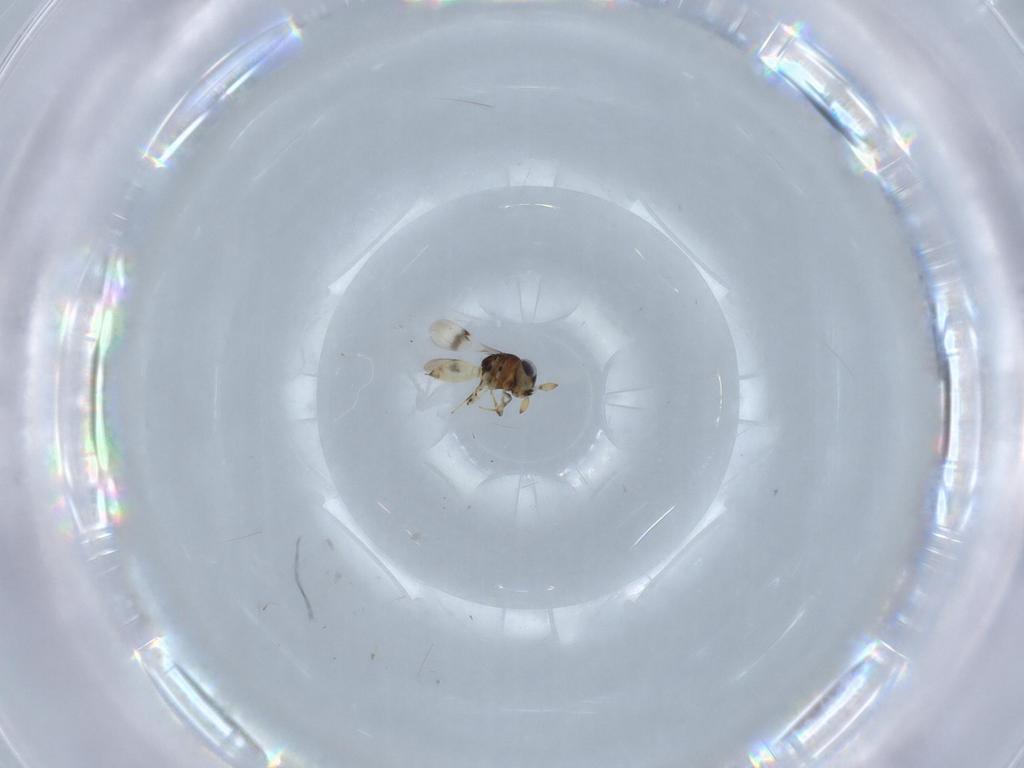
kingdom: Animalia
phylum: Arthropoda
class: Insecta
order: Hymenoptera
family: Scelionidae
